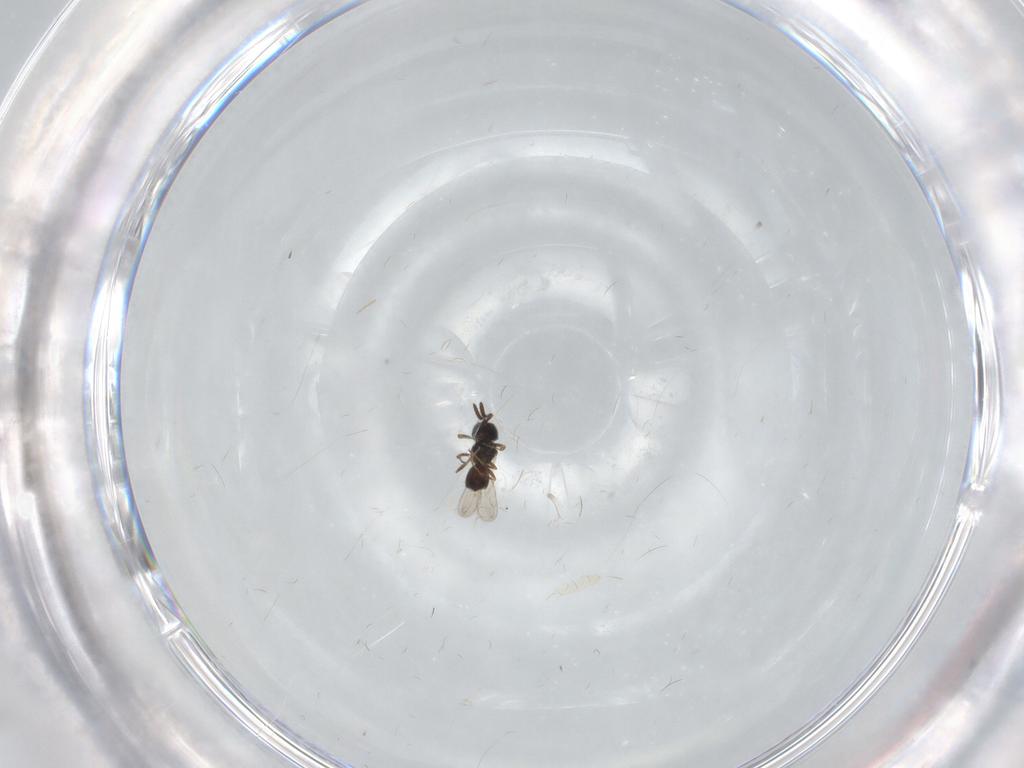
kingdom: Animalia
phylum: Arthropoda
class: Insecta
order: Hymenoptera
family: Scelionidae
